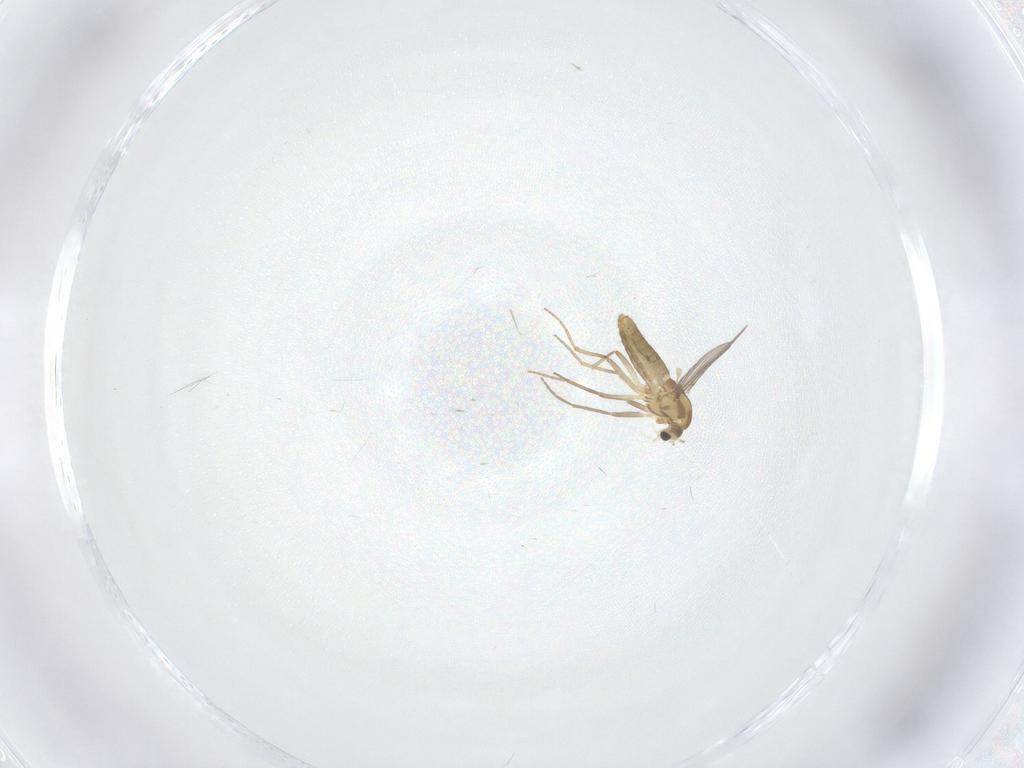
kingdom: Animalia
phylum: Arthropoda
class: Insecta
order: Diptera
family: Chironomidae
